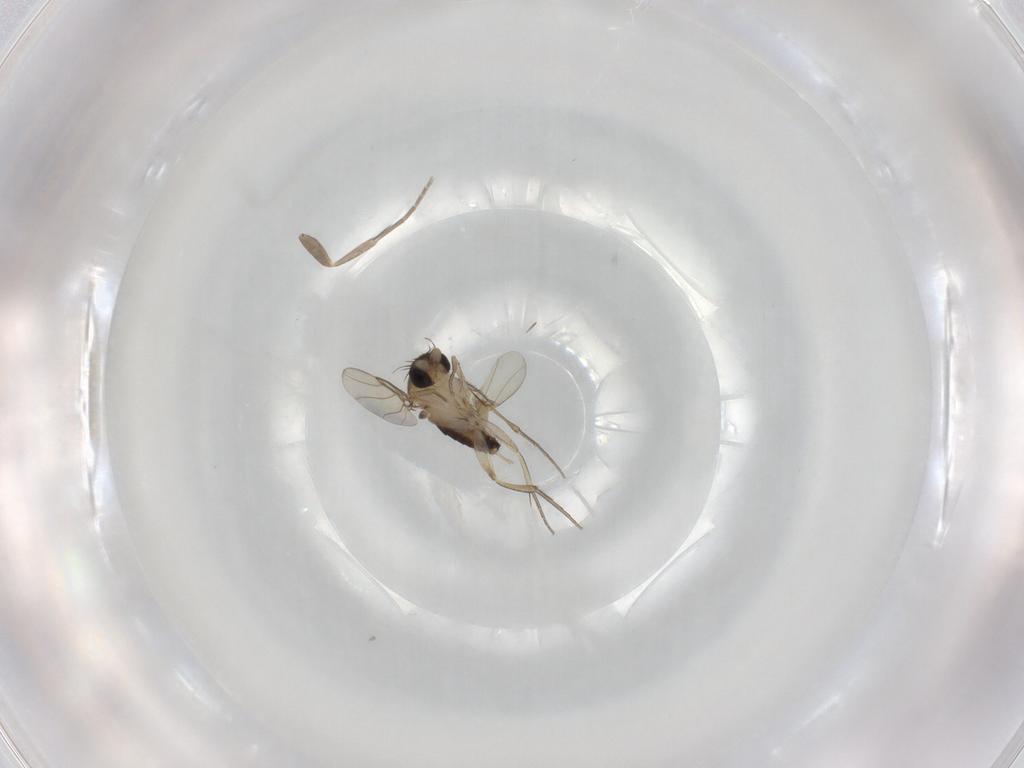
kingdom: Animalia
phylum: Arthropoda
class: Insecta
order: Diptera
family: Phoridae
